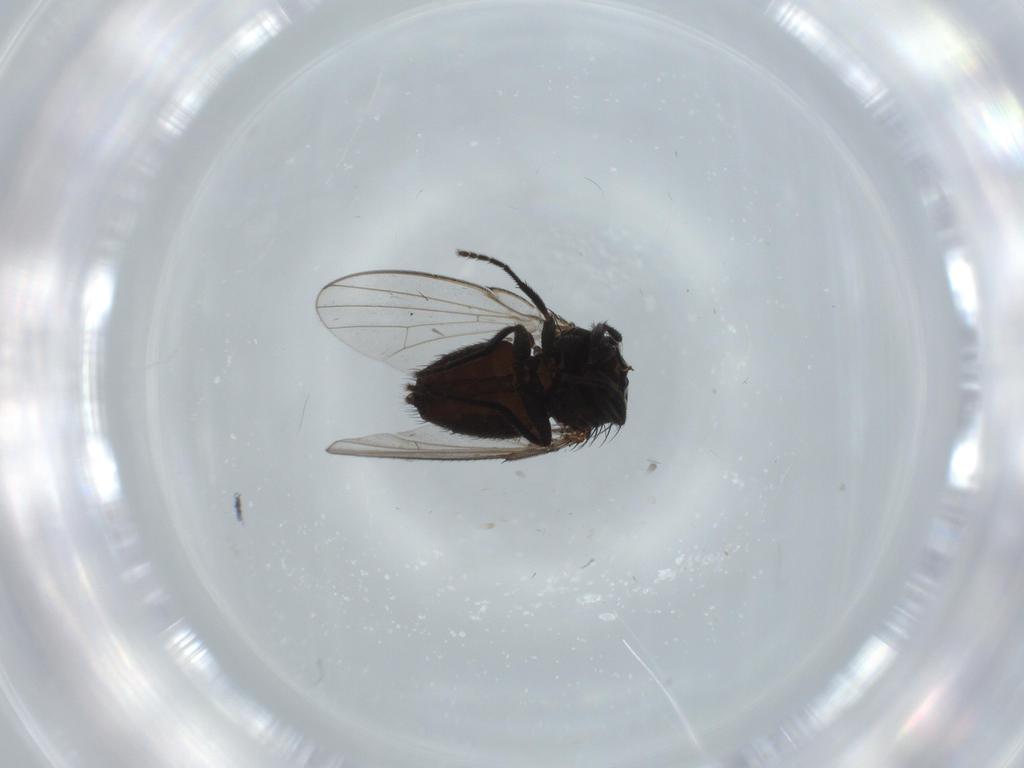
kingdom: Animalia
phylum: Arthropoda
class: Insecta
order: Diptera
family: Milichiidae
